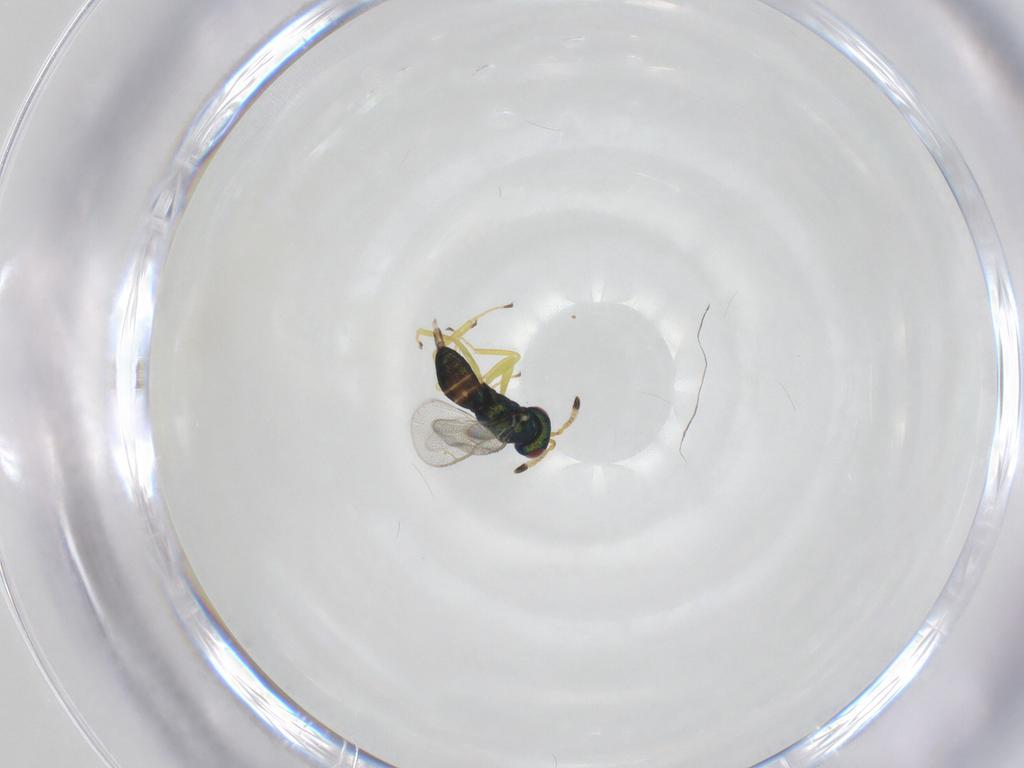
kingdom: Animalia
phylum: Arthropoda
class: Insecta
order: Hymenoptera
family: Pteromalidae
